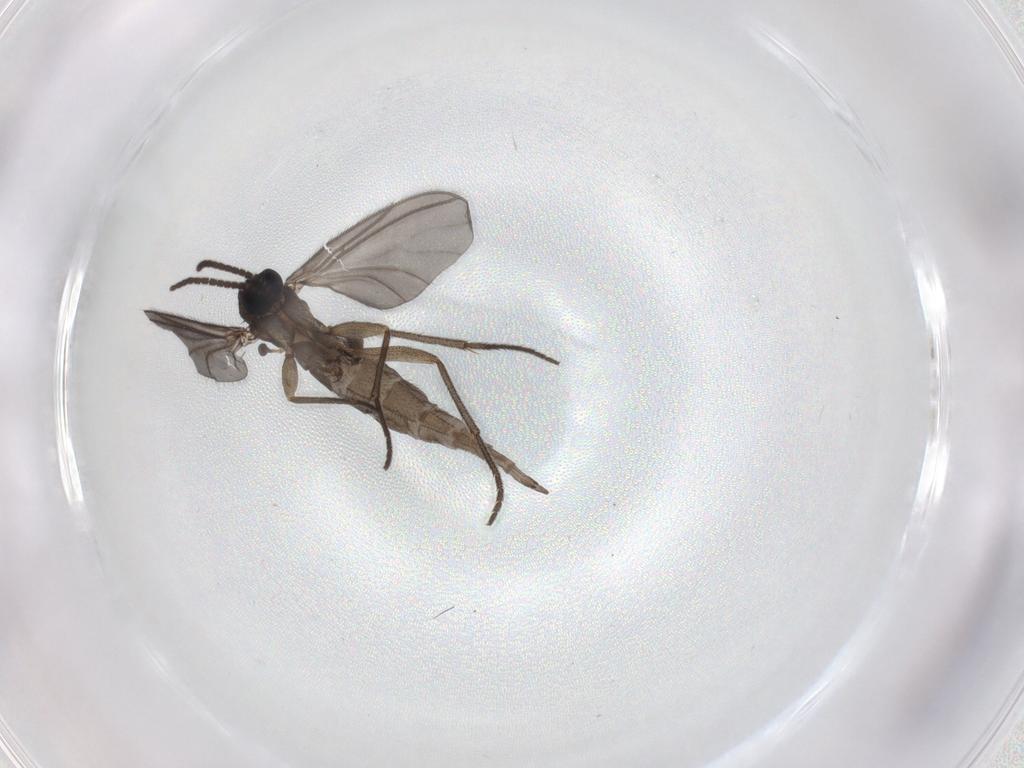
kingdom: Animalia
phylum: Arthropoda
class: Insecta
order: Diptera
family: Sciaridae
